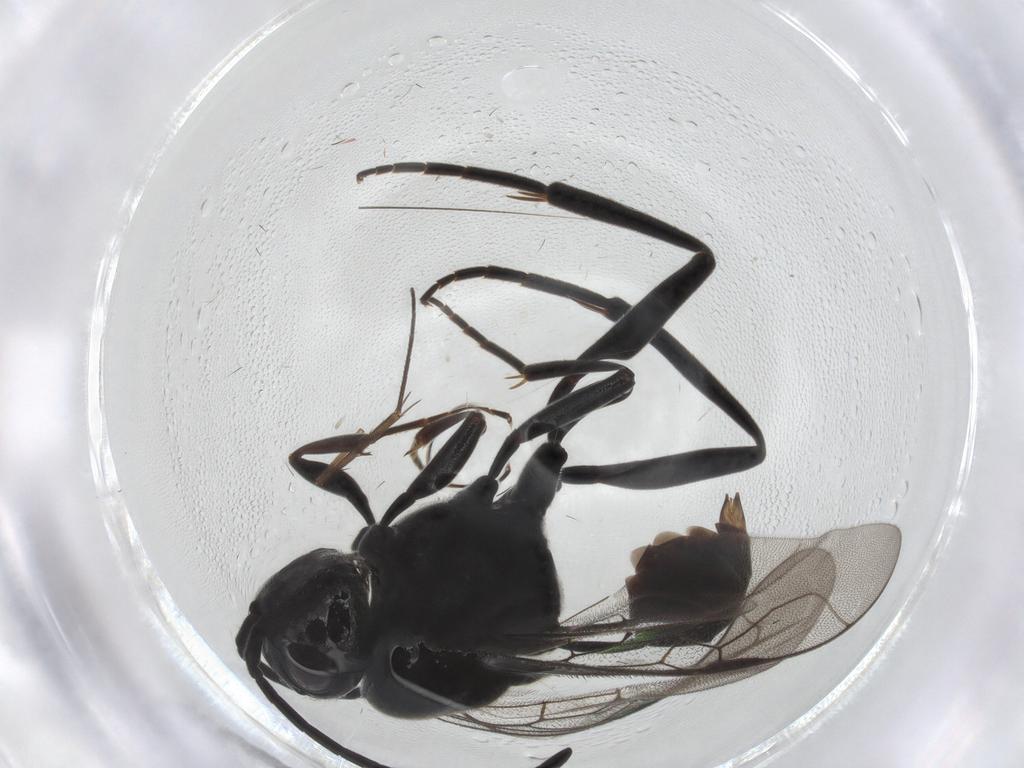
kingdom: Animalia
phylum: Arthropoda
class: Insecta
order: Hymenoptera
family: Evaniidae
